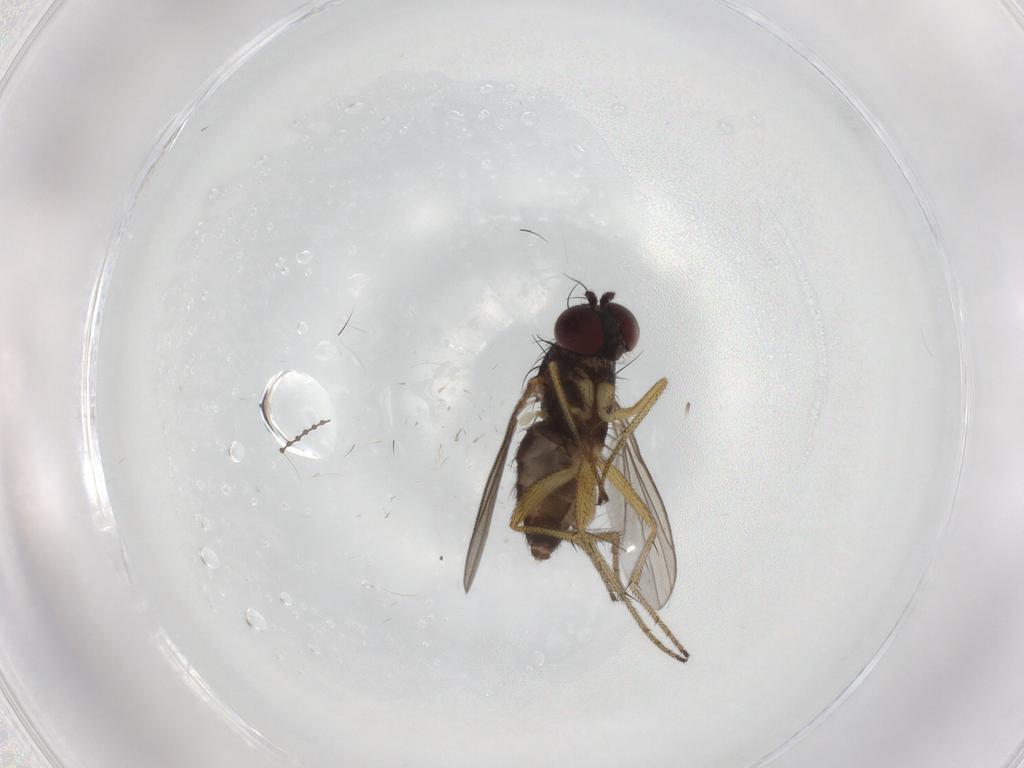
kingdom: Animalia
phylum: Arthropoda
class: Insecta
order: Diptera
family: Cecidomyiidae
